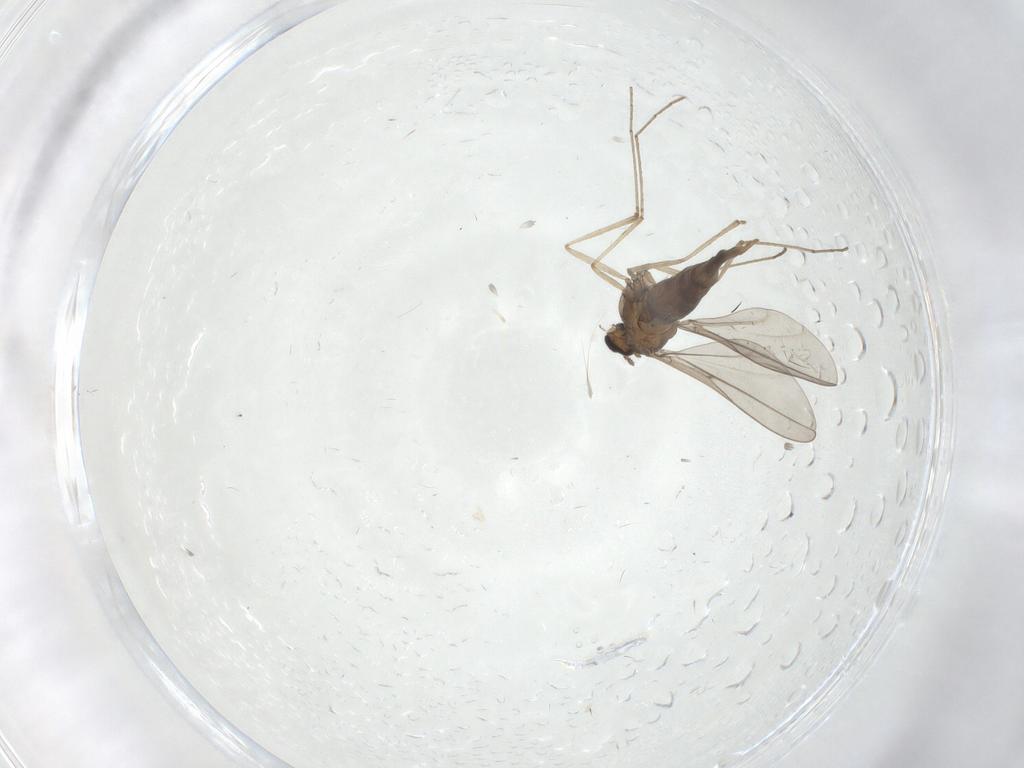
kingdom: Animalia
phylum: Arthropoda
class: Insecta
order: Diptera
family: Cecidomyiidae
